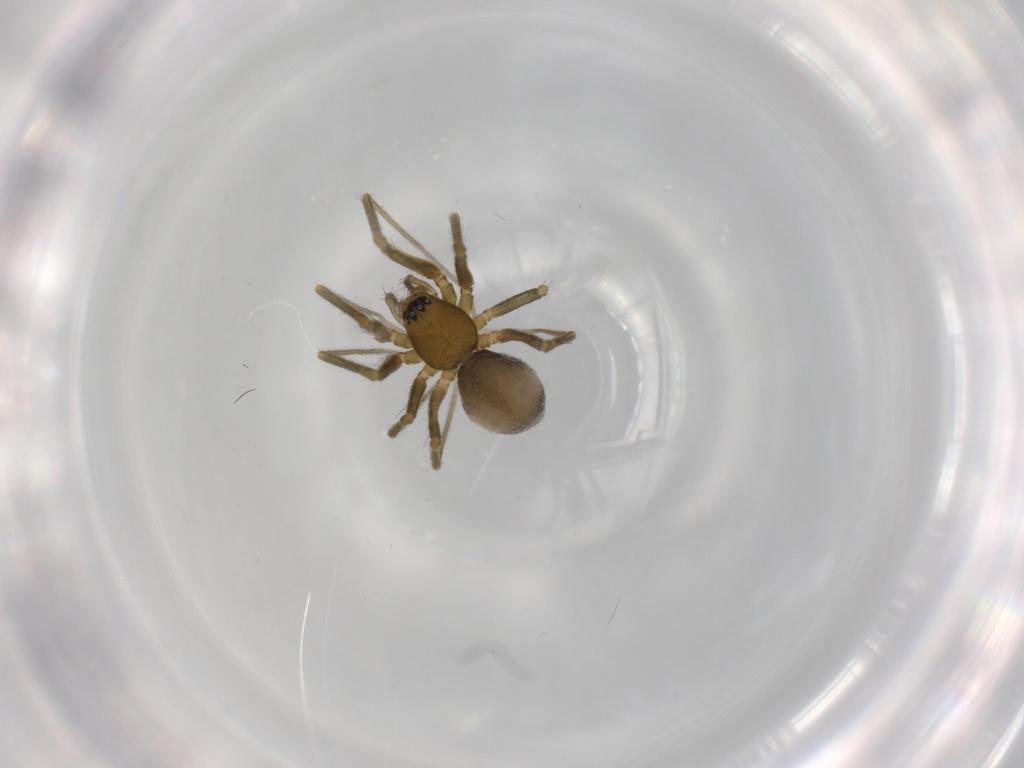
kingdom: Animalia
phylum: Arthropoda
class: Arachnida
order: Araneae
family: Linyphiidae
